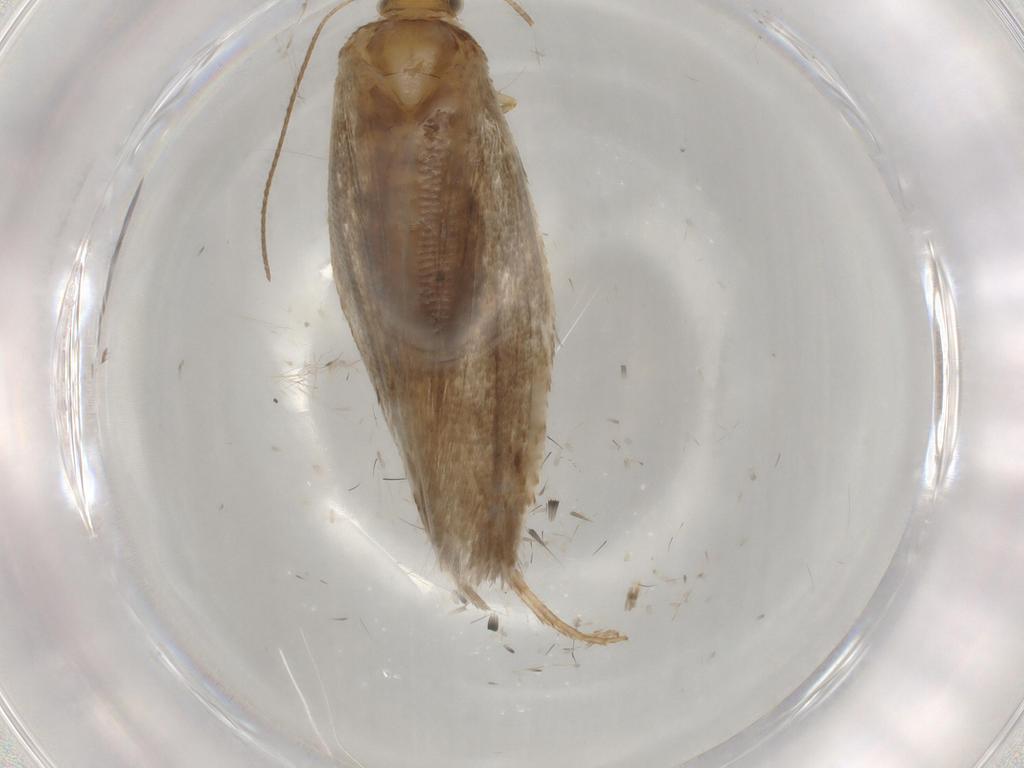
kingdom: Animalia
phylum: Arthropoda
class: Insecta
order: Lepidoptera
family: Argyresthiidae
